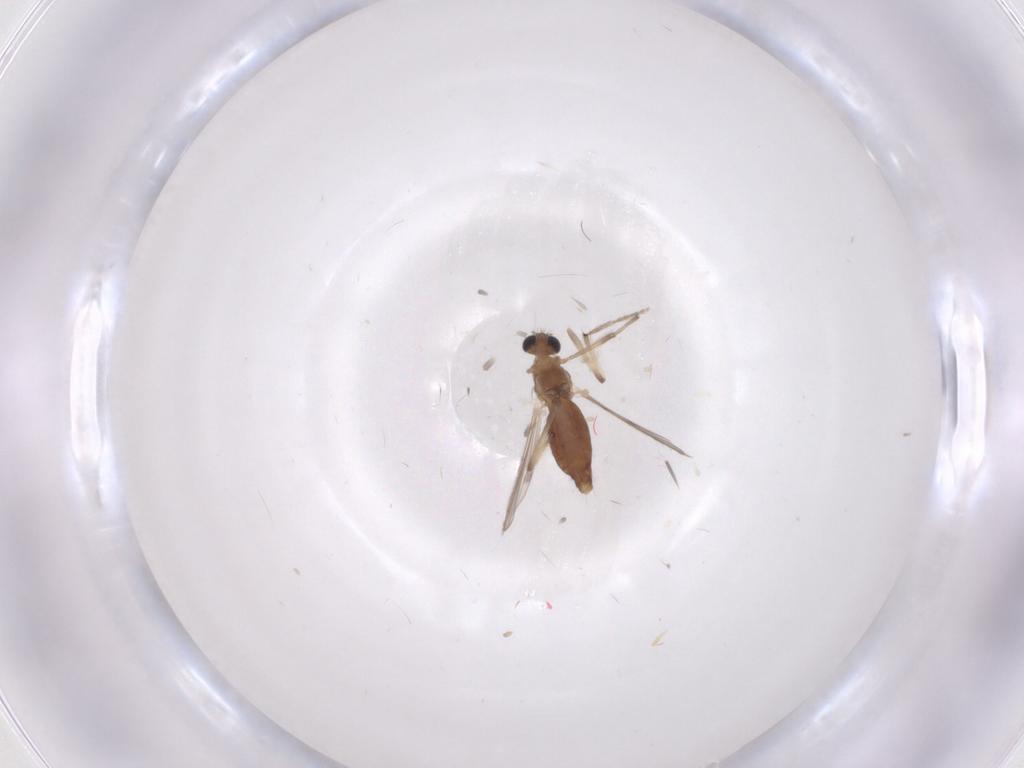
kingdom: Animalia
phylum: Arthropoda
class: Insecta
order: Diptera
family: Chironomidae
